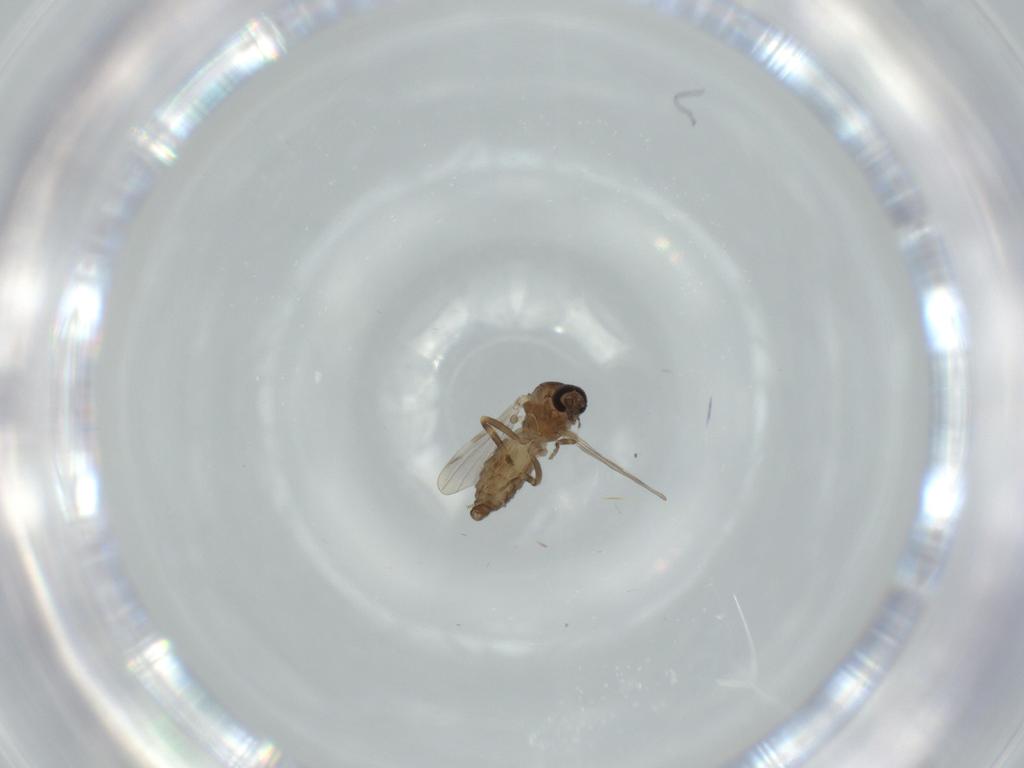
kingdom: Animalia
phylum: Arthropoda
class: Insecta
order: Diptera
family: Ceratopogonidae
